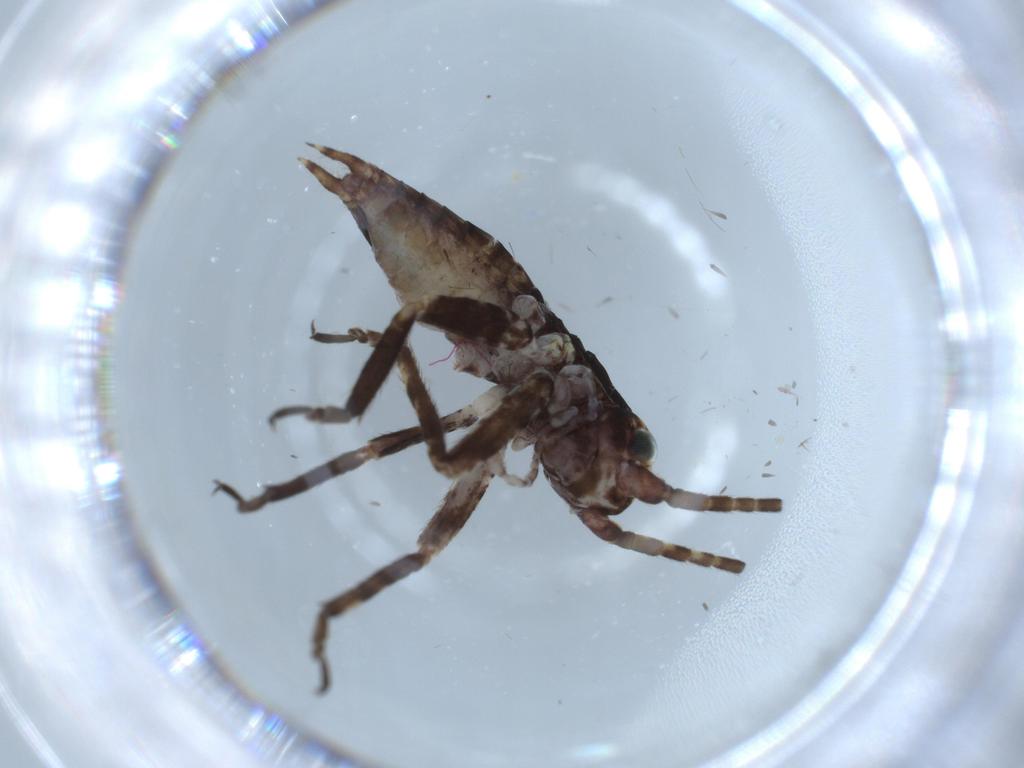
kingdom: Animalia
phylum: Arthropoda
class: Insecta
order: Orthoptera
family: Gryllidae
